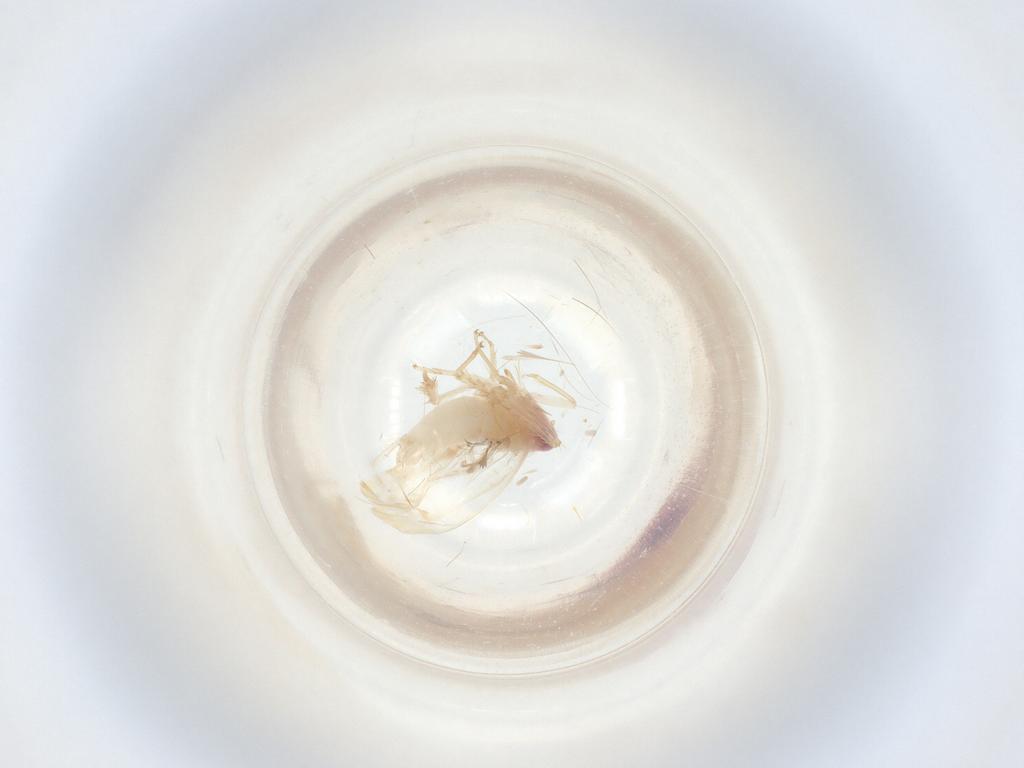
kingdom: Animalia
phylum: Arthropoda
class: Insecta
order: Hemiptera
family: Cicadellidae
